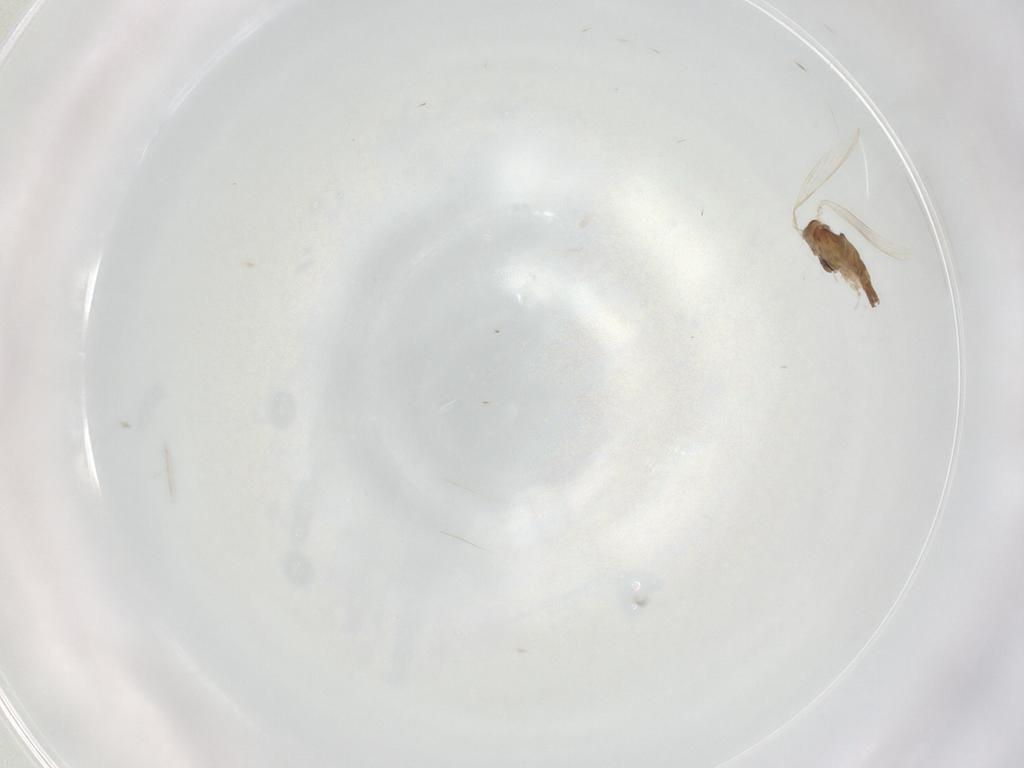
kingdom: Animalia
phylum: Arthropoda
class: Insecta
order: Diptera
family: Psychodidae
